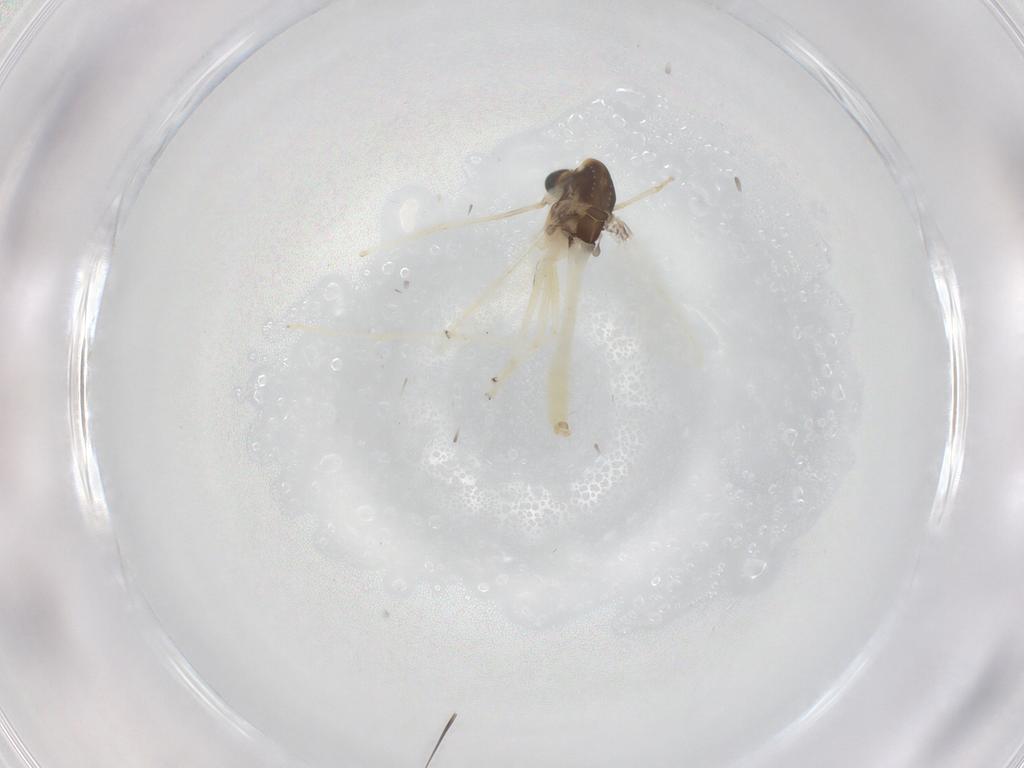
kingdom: Animalia
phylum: Arthropoda
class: Insecta
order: Diptera
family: Chironomidae
